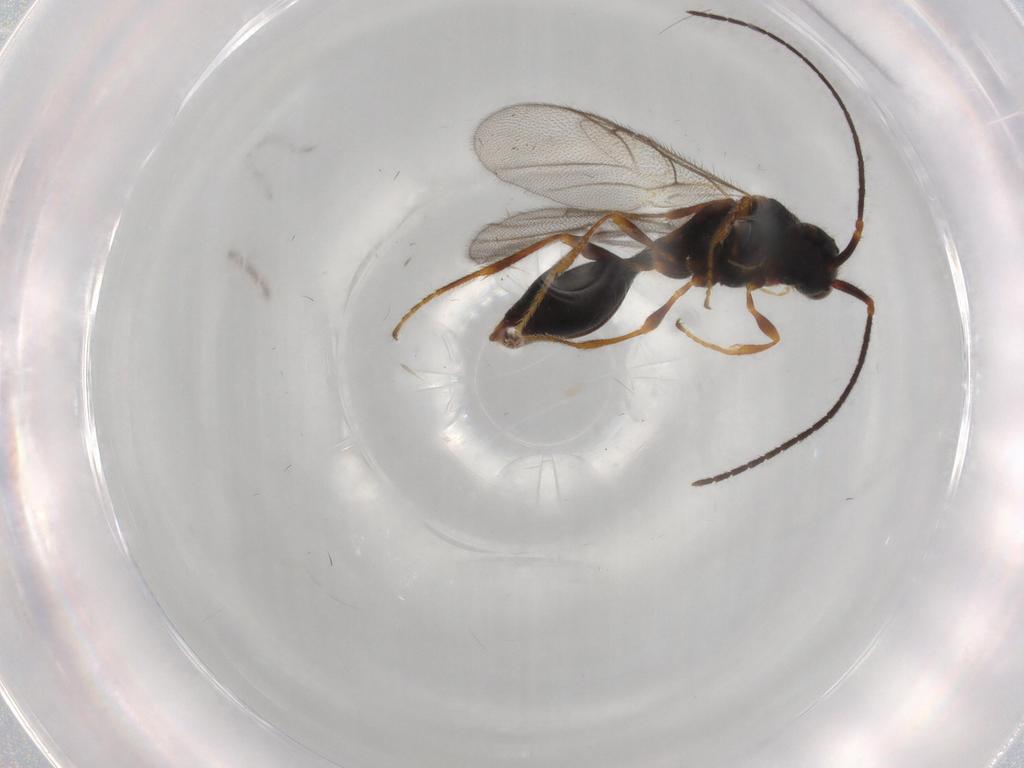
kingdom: Animalia
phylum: Arthropoda
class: Insecta
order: Hymenoptera
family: Diapriidae
